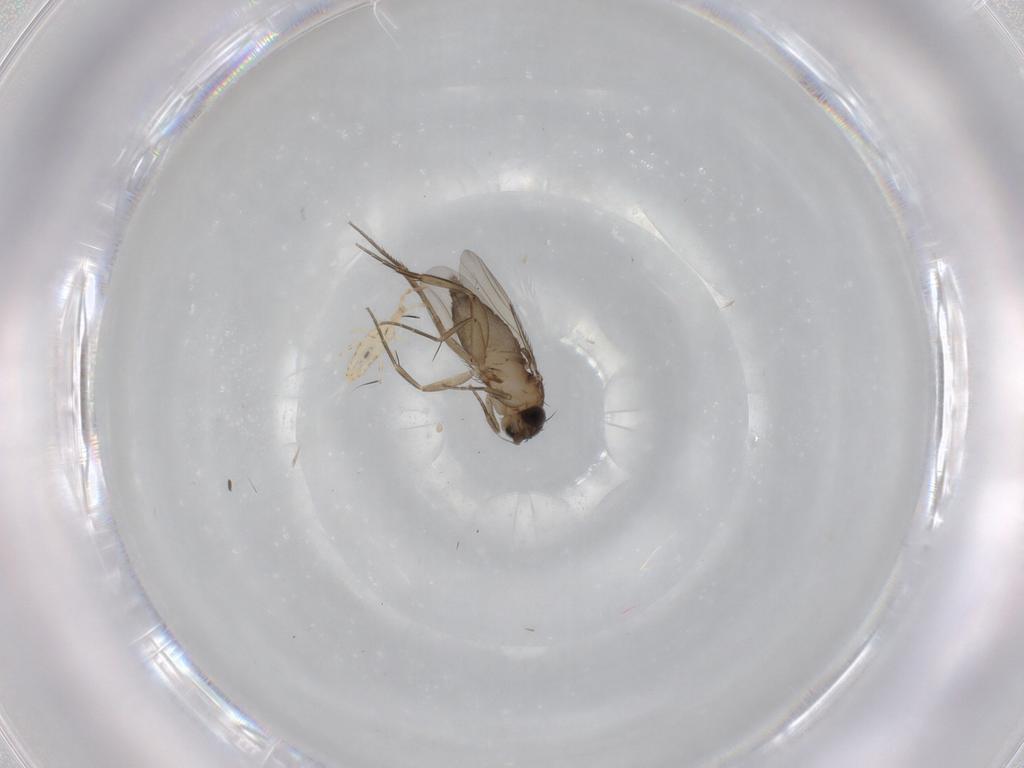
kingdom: Animalia
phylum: Arthropoda
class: Insecta
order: Diptera
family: Phoridae
